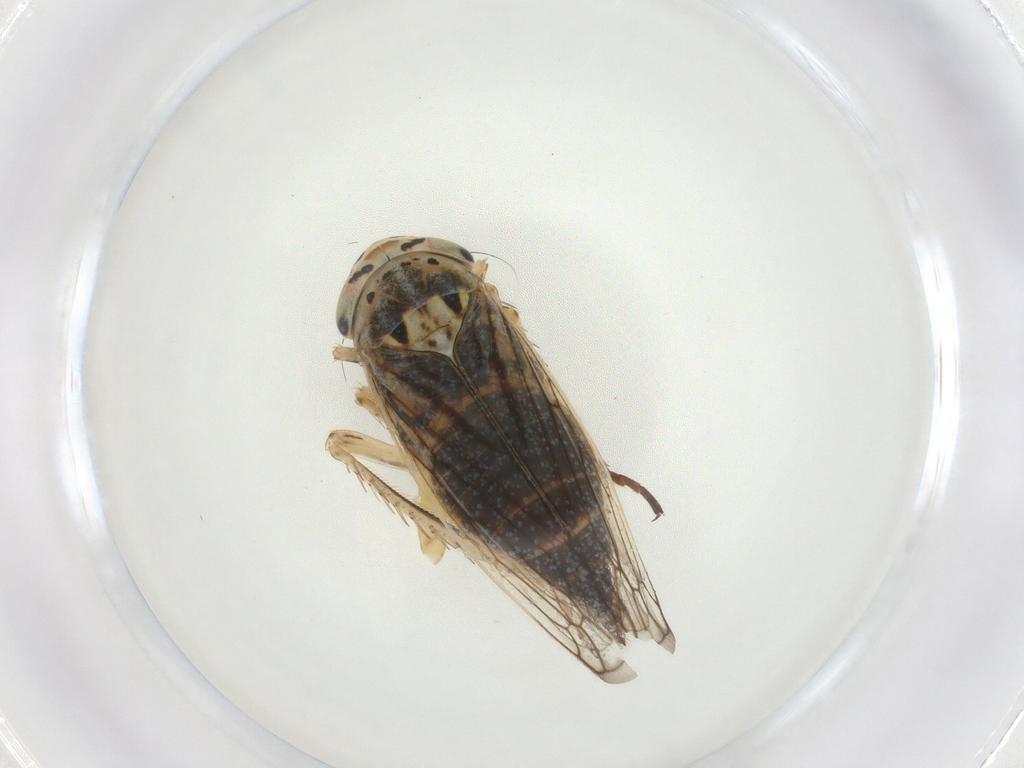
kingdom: Animalia
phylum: Arthropoda
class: Insecta
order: Hemiptera
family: Miridae
